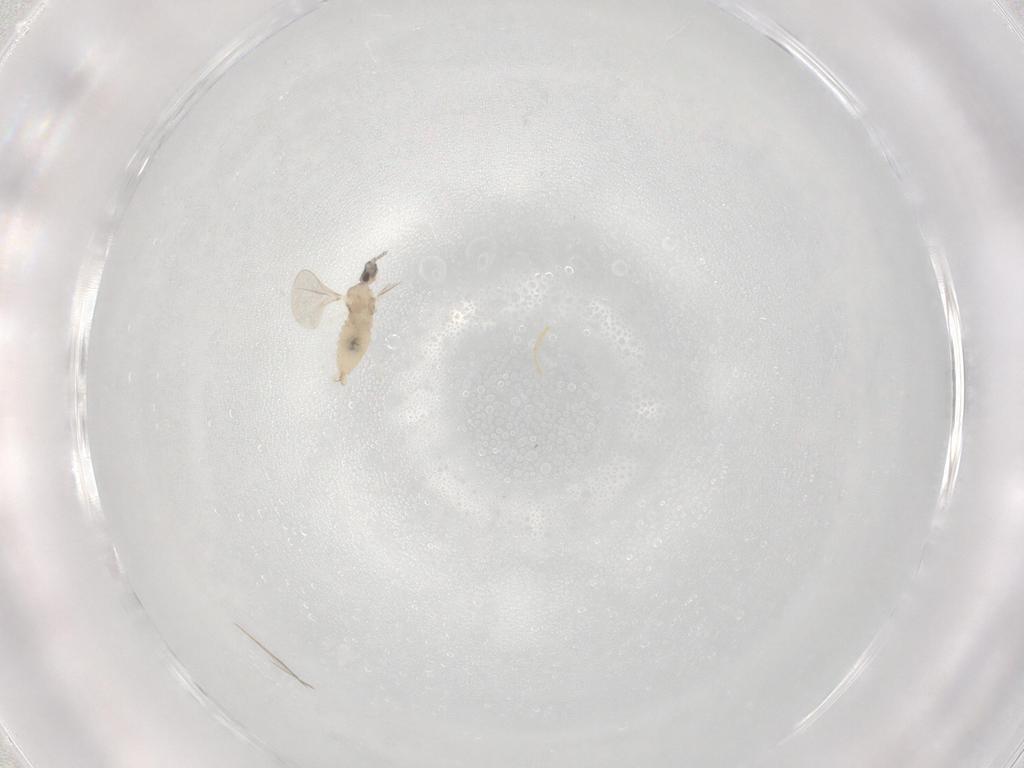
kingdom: Animalia
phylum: Arthropoda
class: Insecta
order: Diptera
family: Cecidomyiidae
